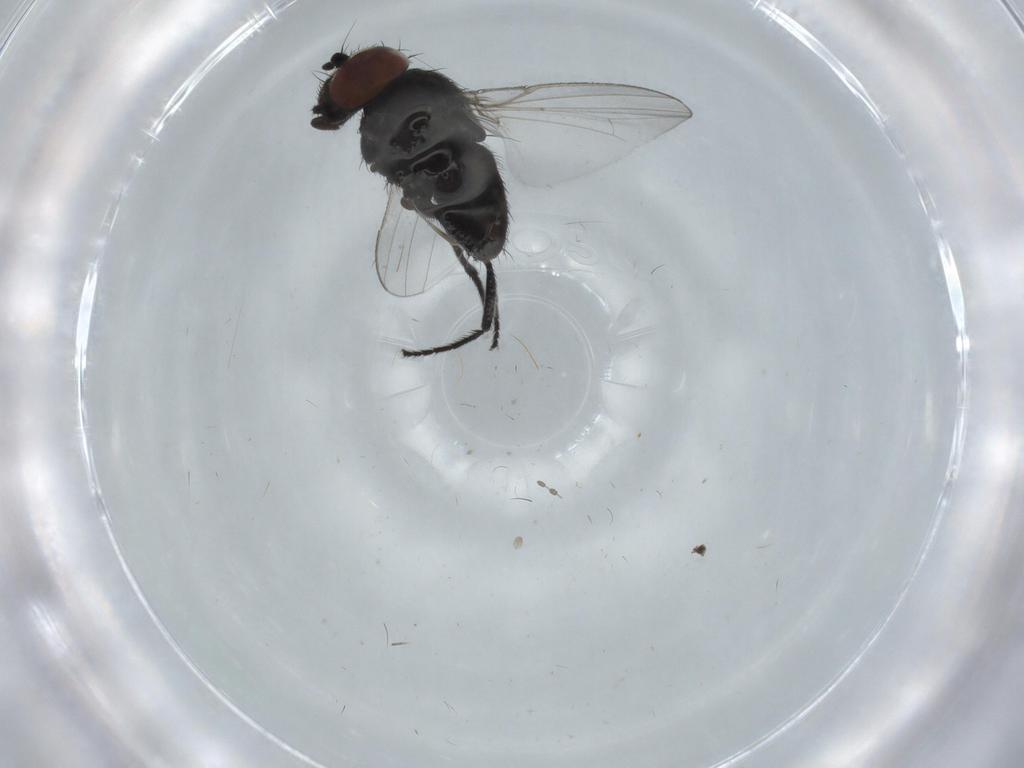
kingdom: Animalia
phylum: Arthropoda
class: Insecta
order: Diptera
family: Milichiidae
